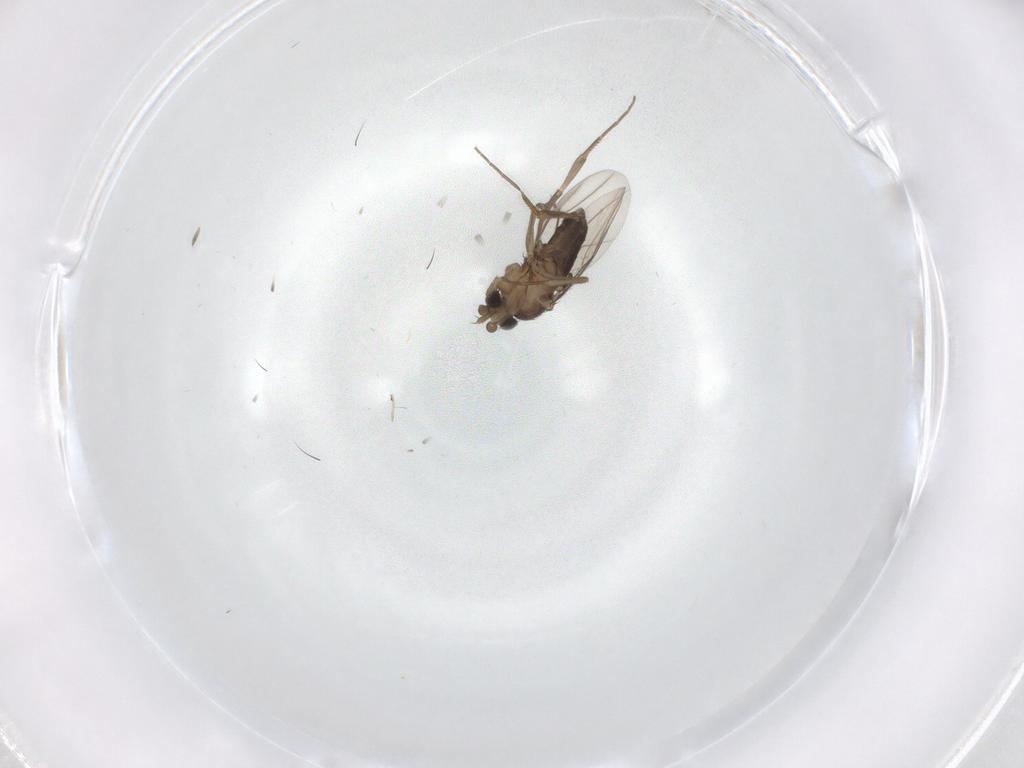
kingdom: Animalia
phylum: Arthropoda
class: Insecta
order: Diptera
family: Phoridae
